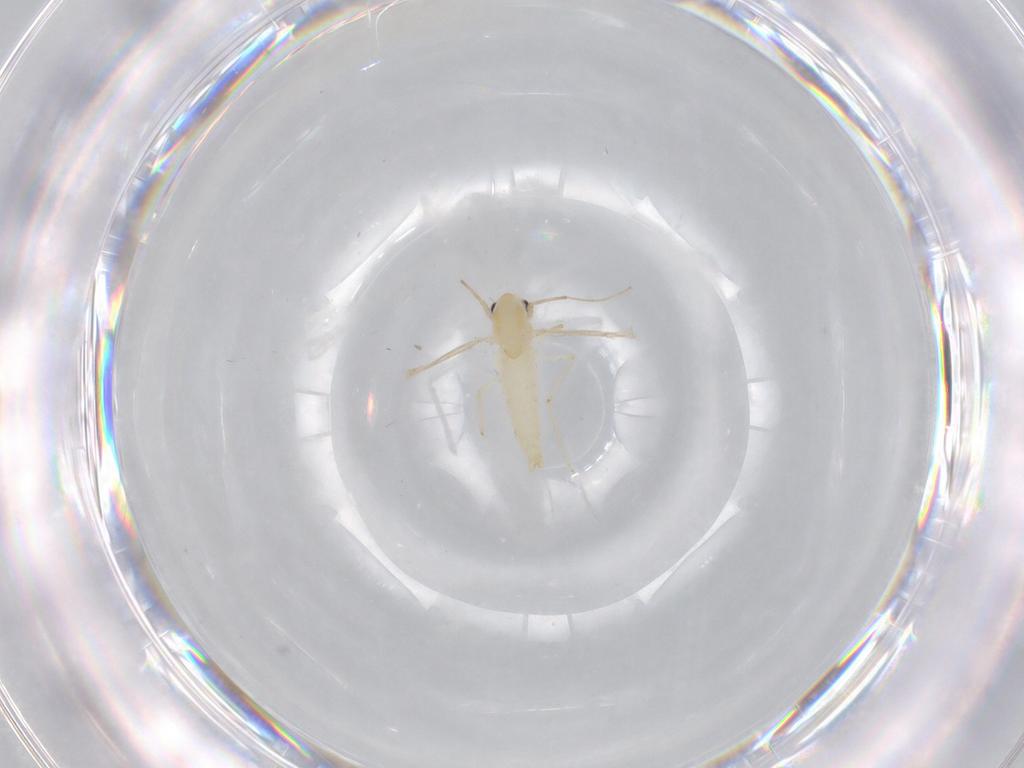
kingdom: Animalia
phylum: Arthropoda
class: Insecta
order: Diptera
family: Chironomidae
